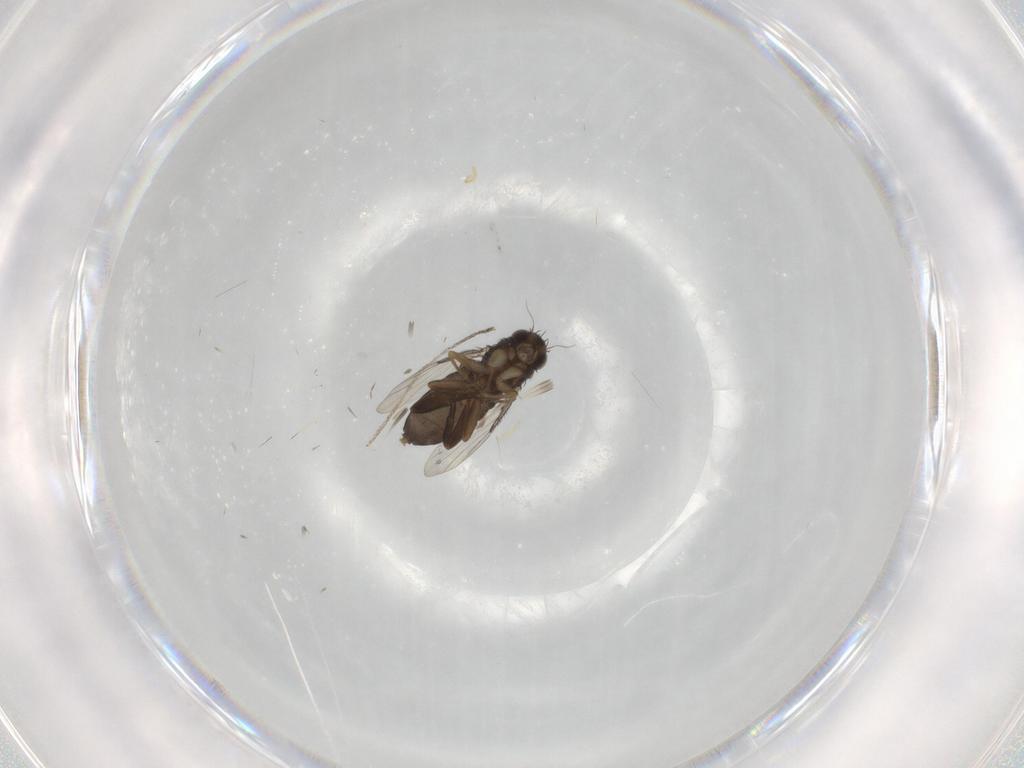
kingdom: Animalia
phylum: Arthropoda
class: Insecta
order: Diptera
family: Phoridae
